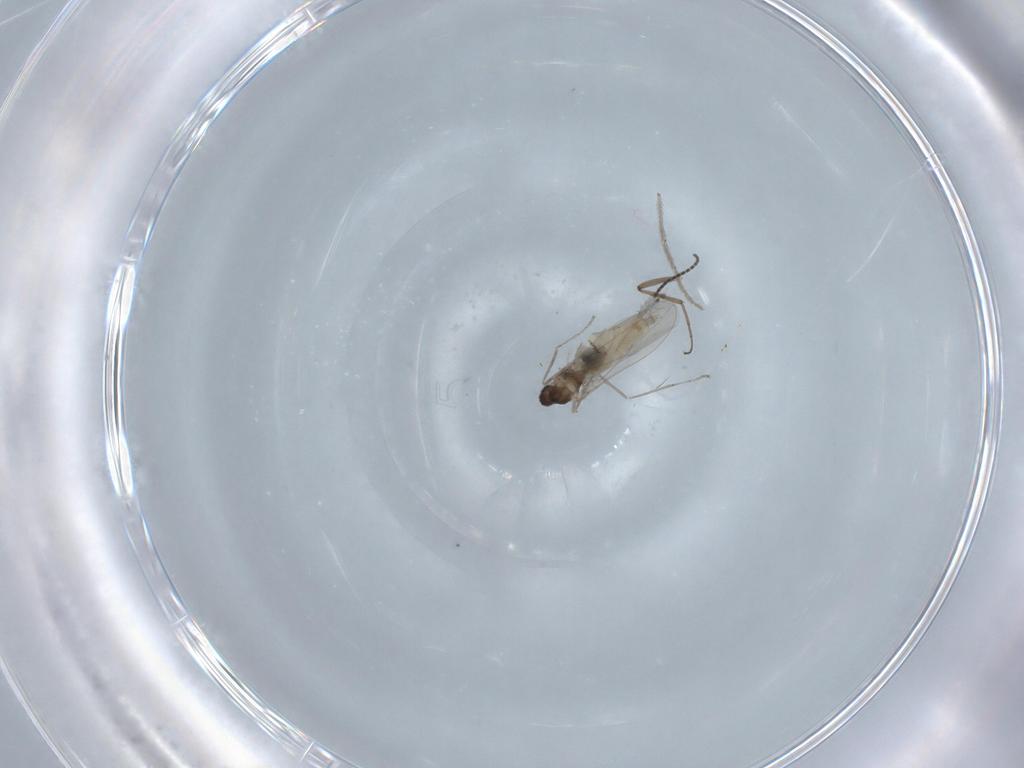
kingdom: Animalia
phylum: Arthropoda
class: Insecta
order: Diptera
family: Cecidomyiidae
